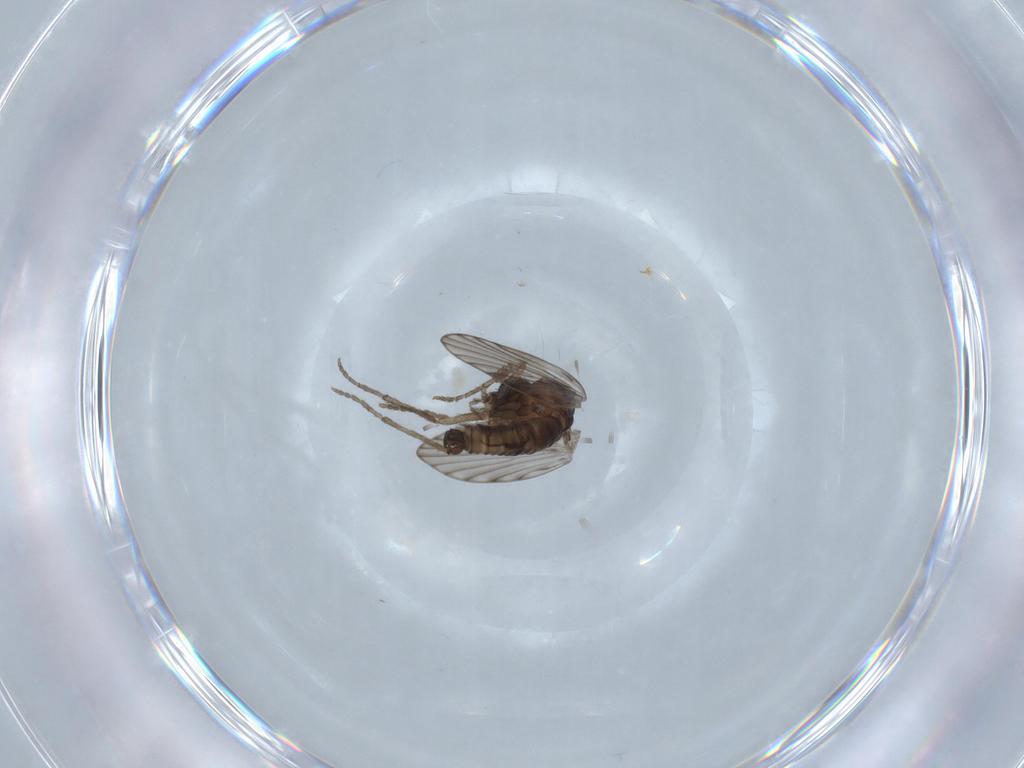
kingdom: Animalia
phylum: Arthropoda
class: Insecta
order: Diptera
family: Psychodidae
